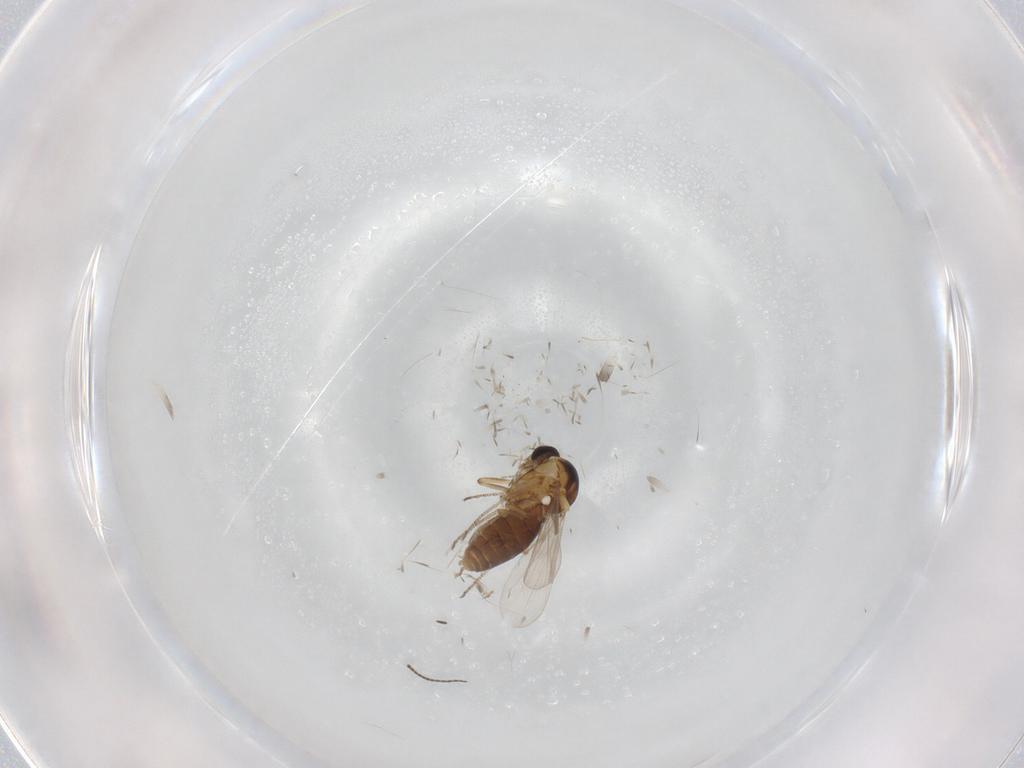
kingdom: Animalia
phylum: Arthropoda
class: Insecta
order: Diptera
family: Ceratopogonidae
